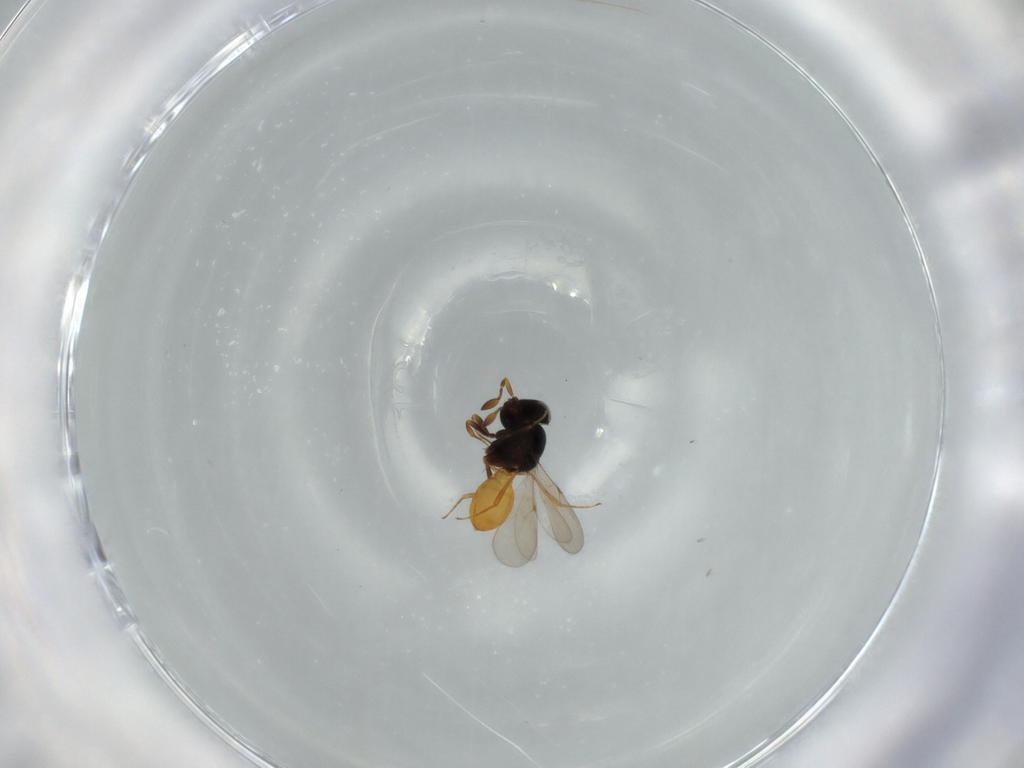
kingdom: Animalia
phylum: Arthropoda
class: Insecta
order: Hymenoptera
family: Scelionidae
